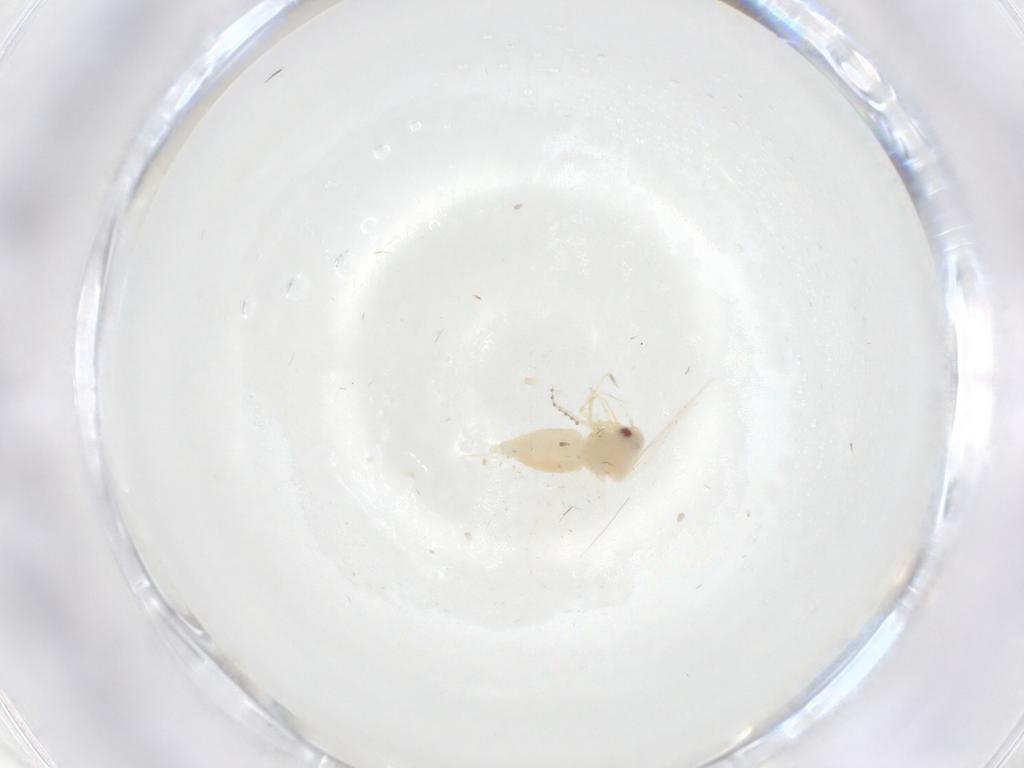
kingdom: Animalia
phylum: Arthropoda
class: Insecta
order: Hemiptera
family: Aleyrodidae
